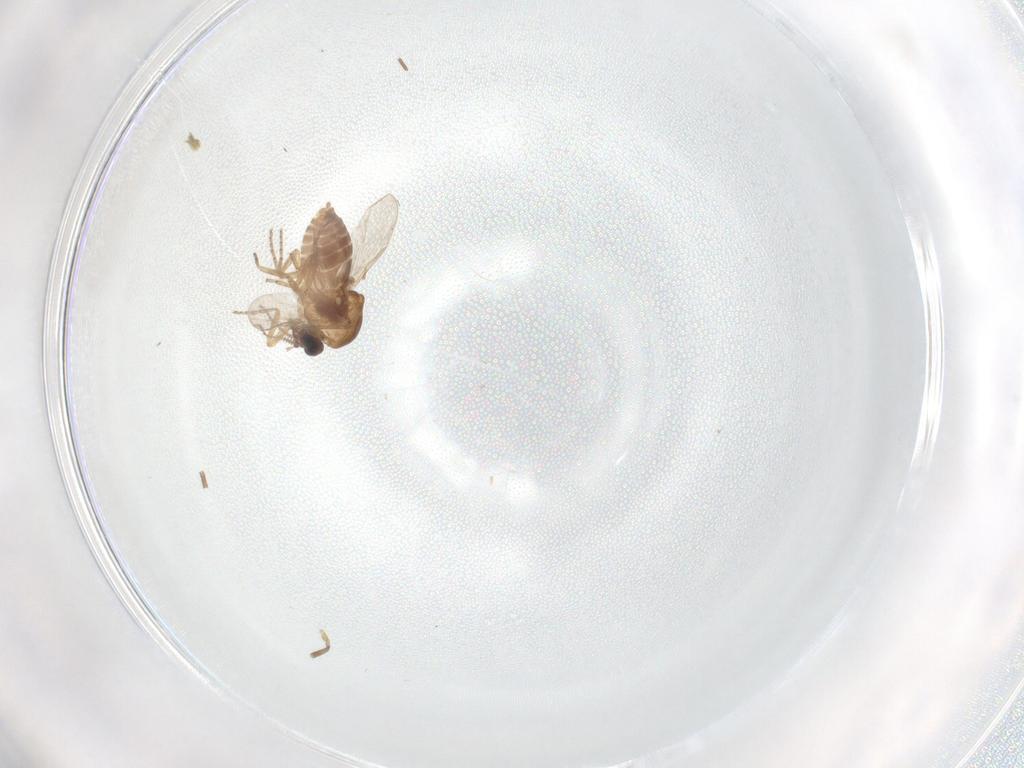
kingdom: Animalia
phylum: Arthropoda
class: Insecta
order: Diptera
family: Ceratopogonidae
